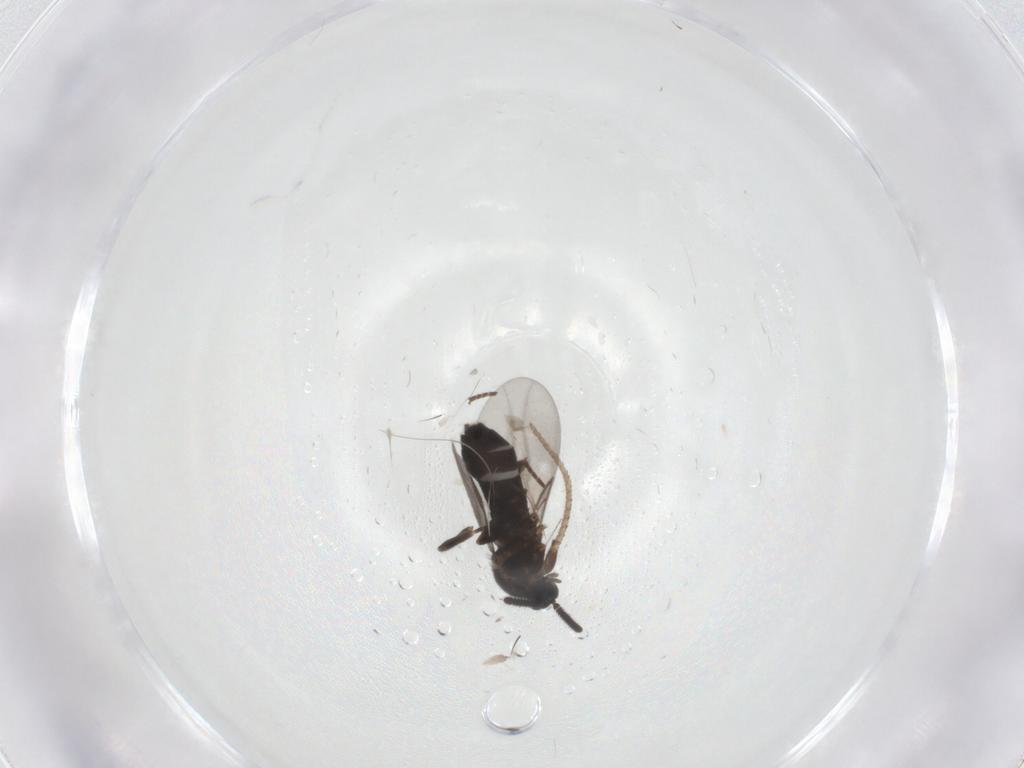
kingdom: Animalia
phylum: Arthropoda
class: Insecta
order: Diptera
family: Scatopsidae
